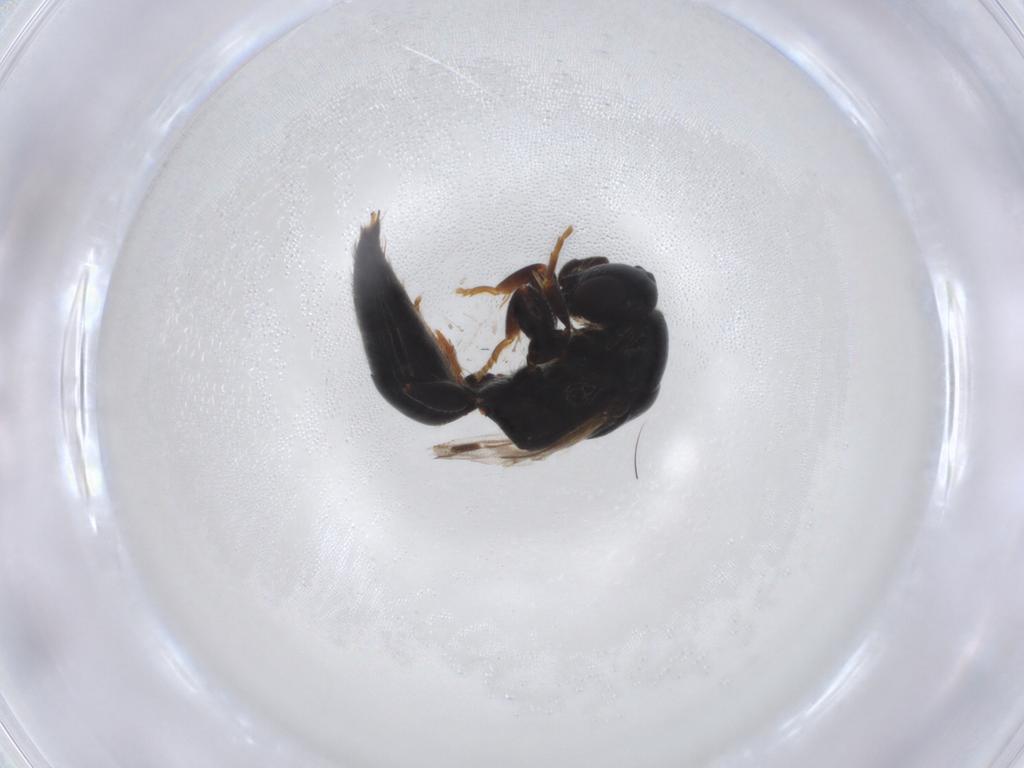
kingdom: Animalia
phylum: Arthropoda
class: Insecta
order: Hymenoptera
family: Bethylidae
